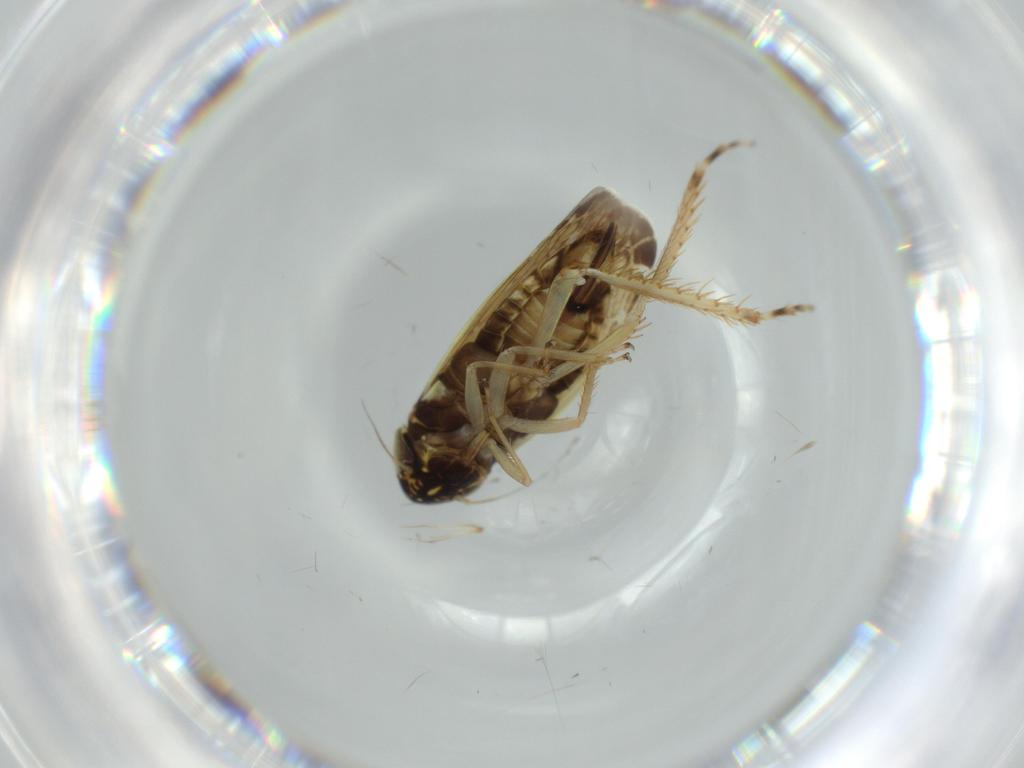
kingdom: Animalia
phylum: Arthropoda
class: Insecta
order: Hemiptera
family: Cicadellidae
